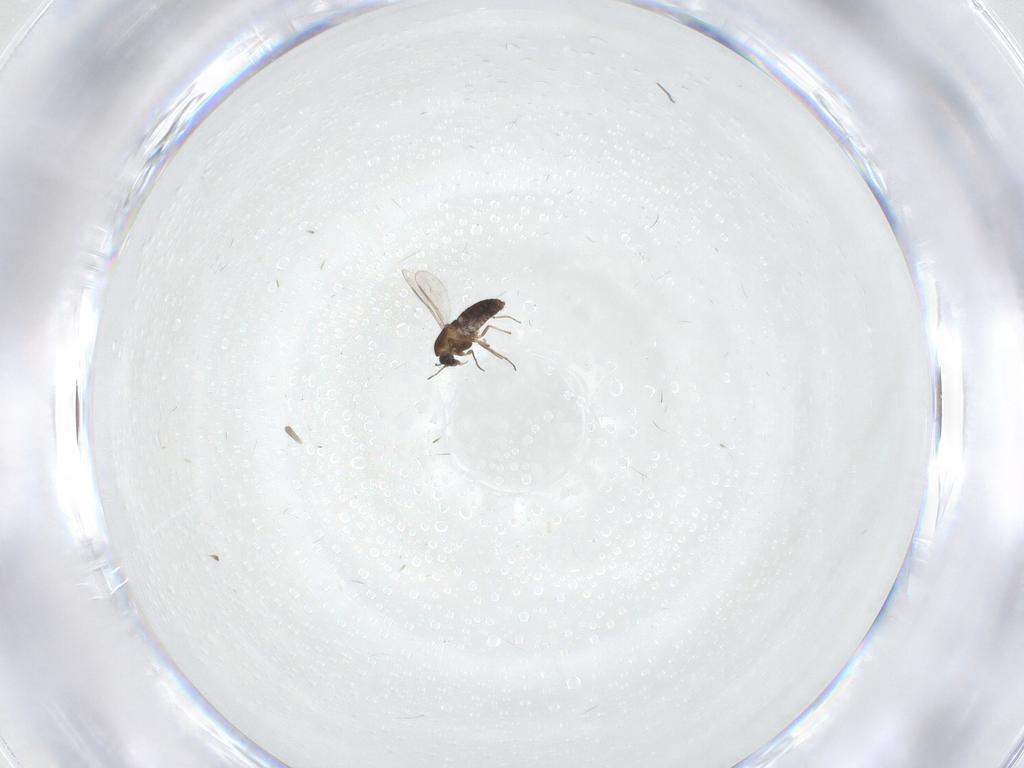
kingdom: Animalia
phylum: Arthropoda
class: Insecta
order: Diptera
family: Chironomidae
